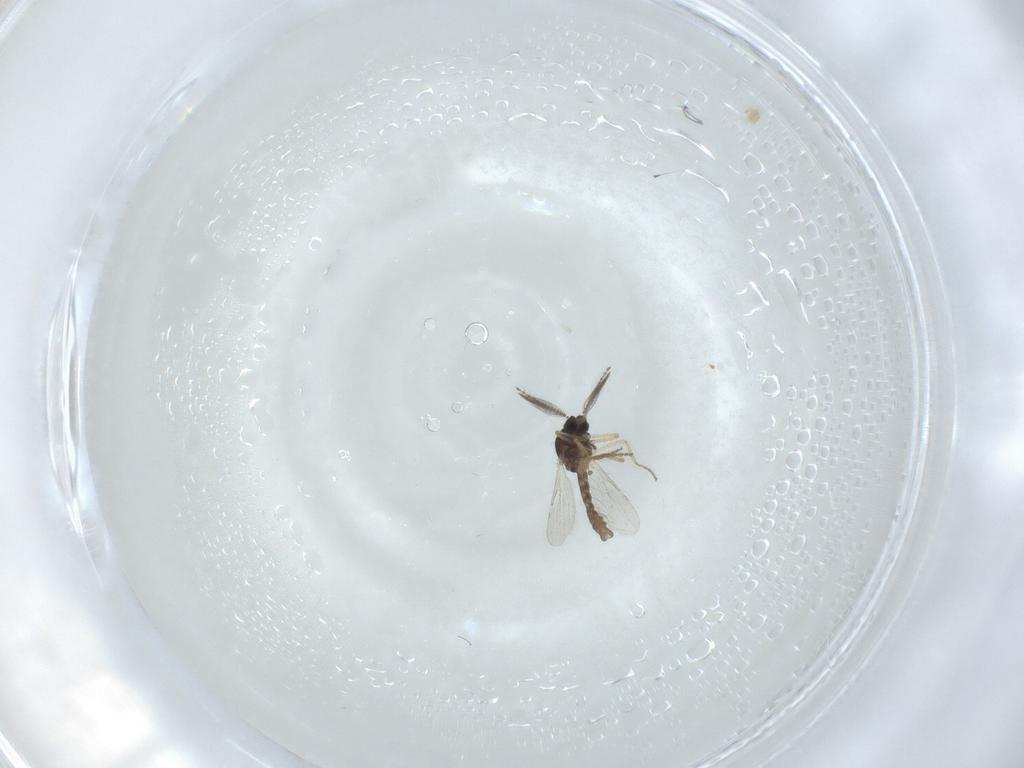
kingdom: Animalia
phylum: Arthropoda
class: Insecta
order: Diptera
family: Ceratopogonidae
